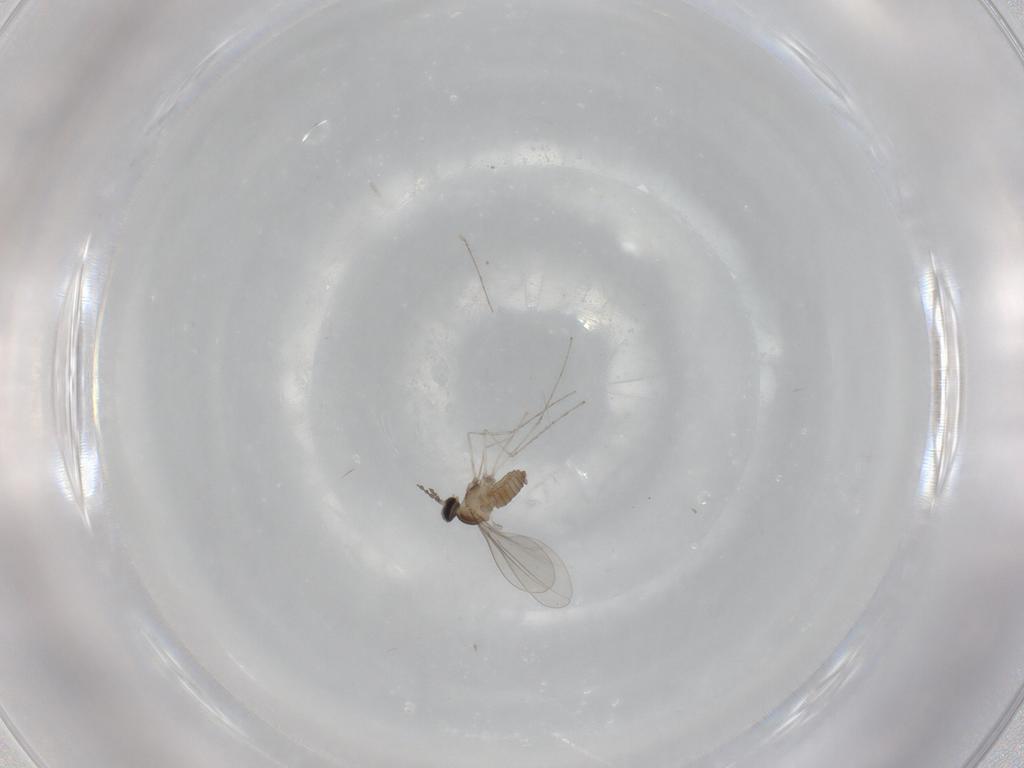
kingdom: Animalia
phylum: Arthropoda
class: Insecta
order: Diptera
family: Cecidomyiidae
